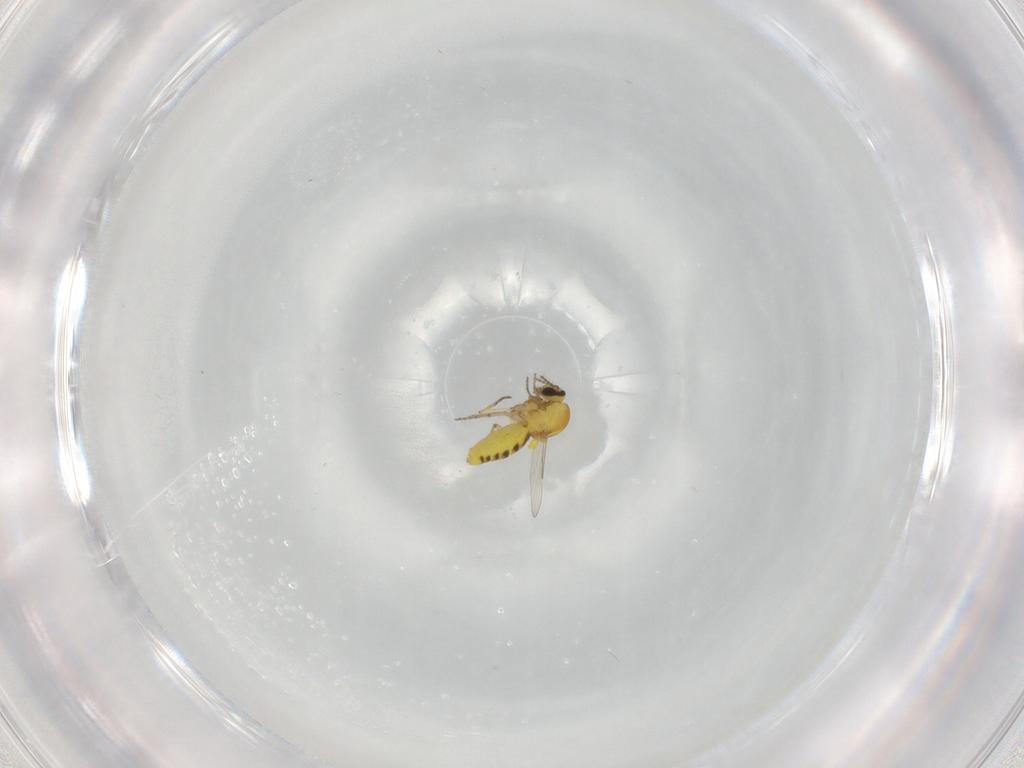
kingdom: Animalia
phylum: Arthropoda
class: Insecta
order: Diptera
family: Ceratopogonidae
